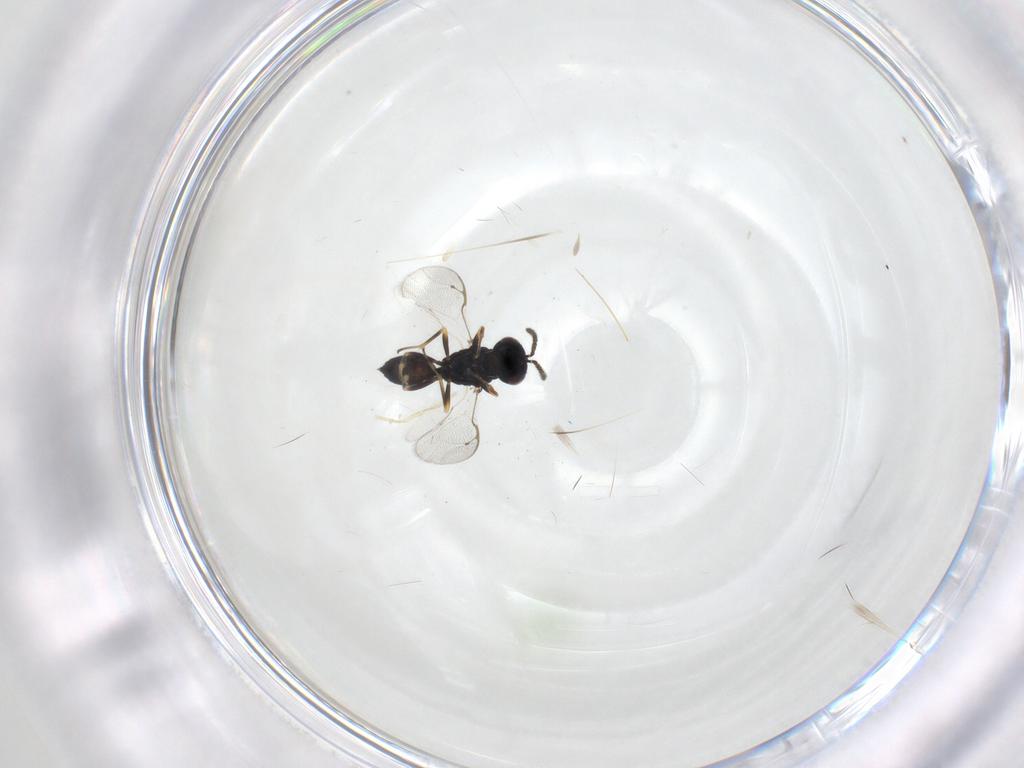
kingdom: Animalia
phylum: Arthropoda
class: Insecta
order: Hymenoptera
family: Pteromalidae
